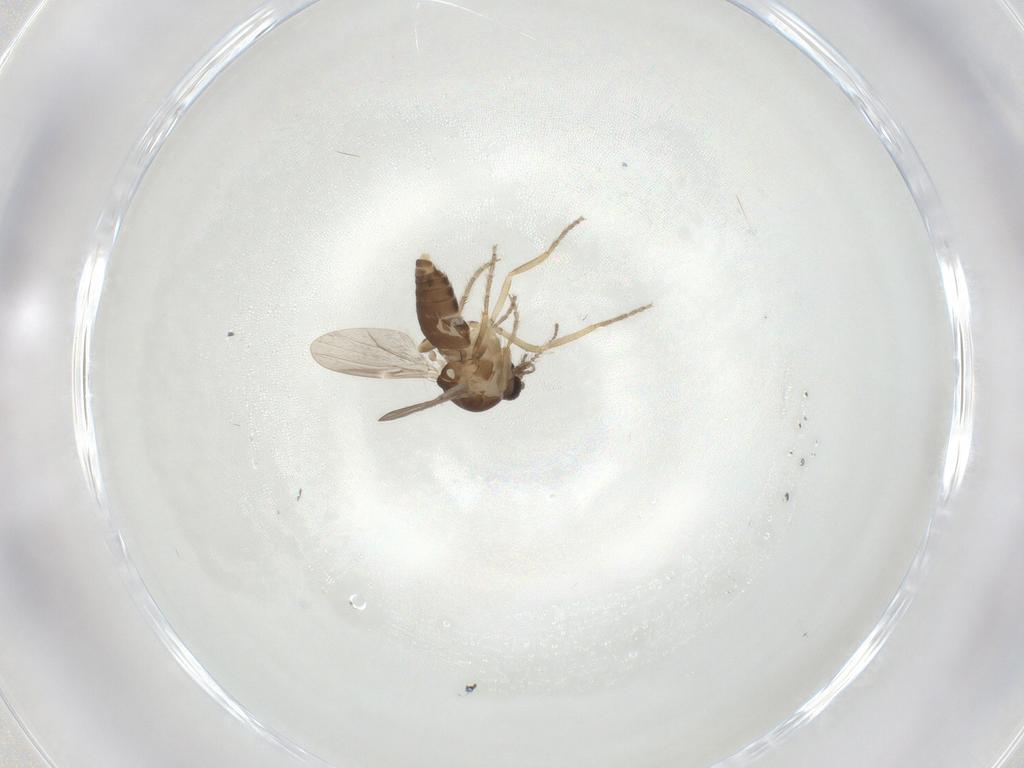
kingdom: Animalia
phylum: Arthropoda
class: Insecta
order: Diptera
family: Ceratopogonidae
